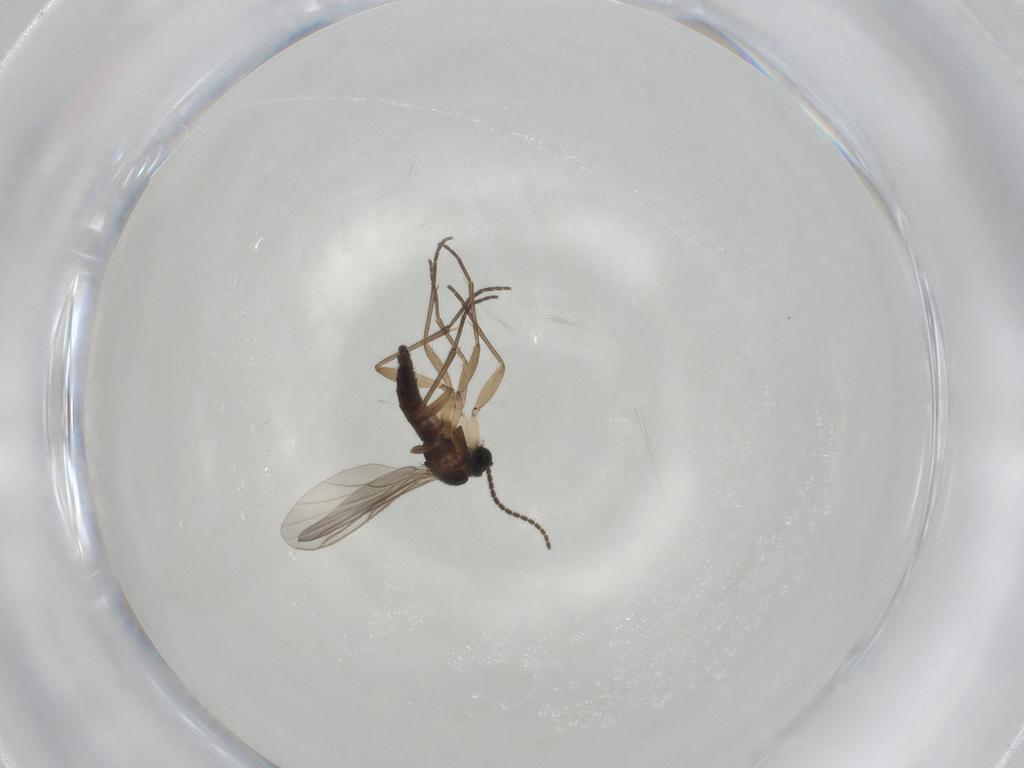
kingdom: Animalia
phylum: Arthropoda
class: Insecta
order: Diptera
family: Sciaridae
